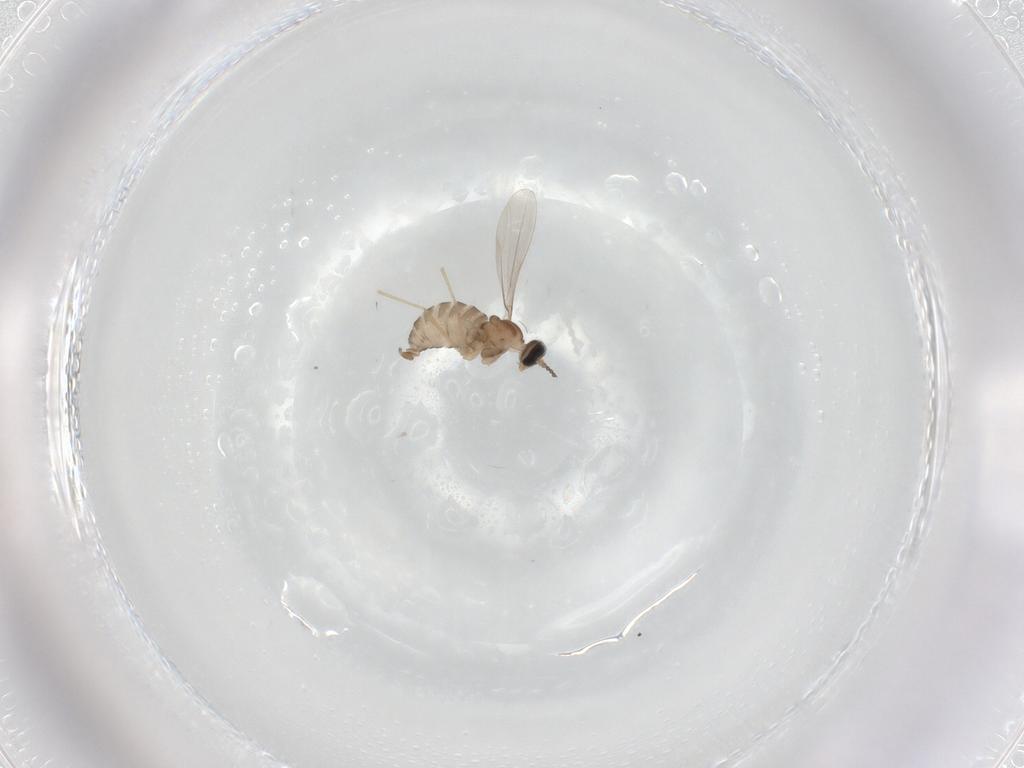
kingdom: Animalia
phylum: Arthropoda
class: Insecta
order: Diptera
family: Cecidomyiidae
